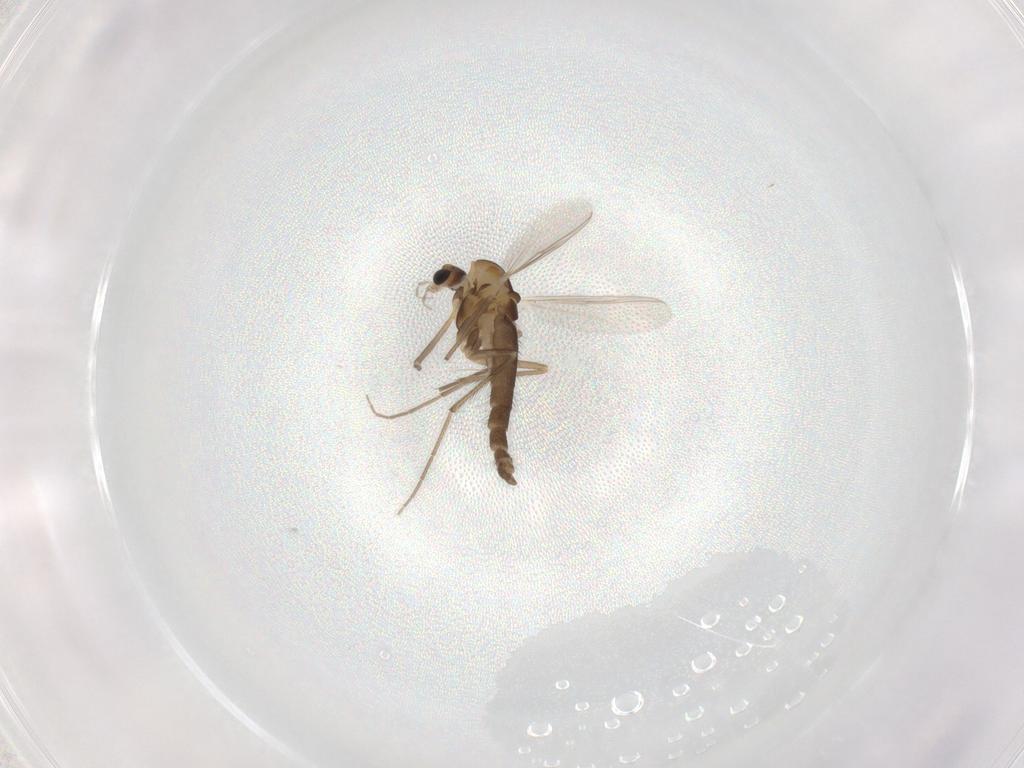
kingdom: Animalia
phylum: Arthropoda
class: Insecta
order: Diptera
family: Chironomidae
